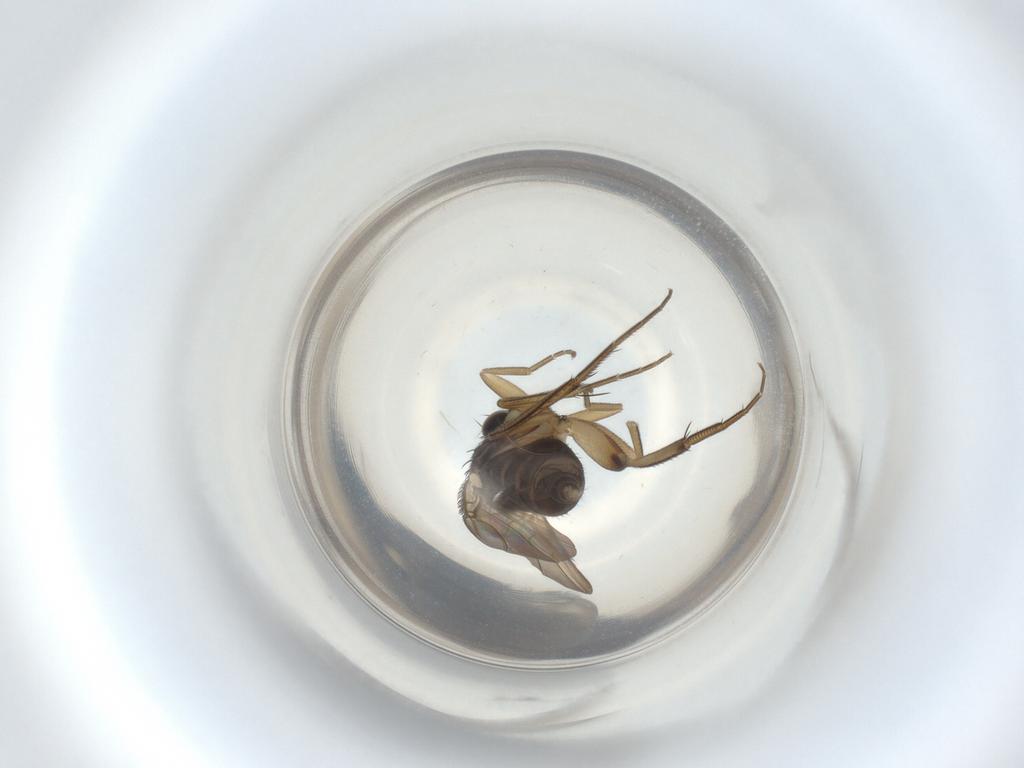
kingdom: Animalia
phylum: Arthropoda
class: Insecta
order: Diptera
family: Phoridae
